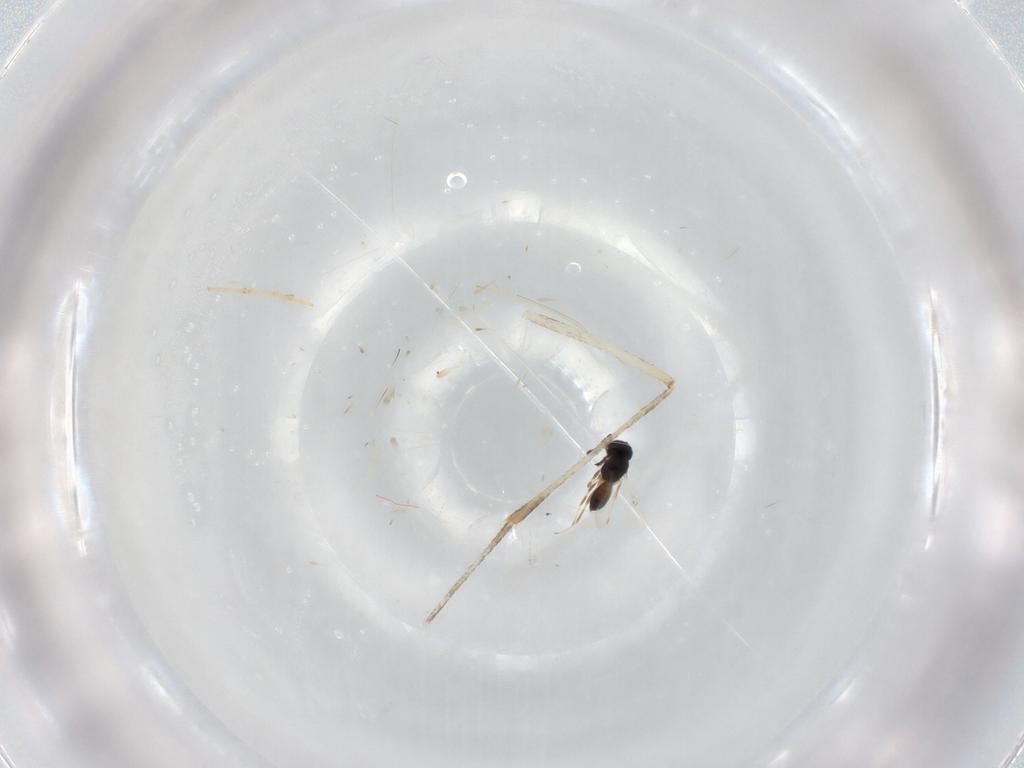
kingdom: Animalia
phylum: Arthropoda
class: Insecta
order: Hymenoptera
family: Scelionidae
